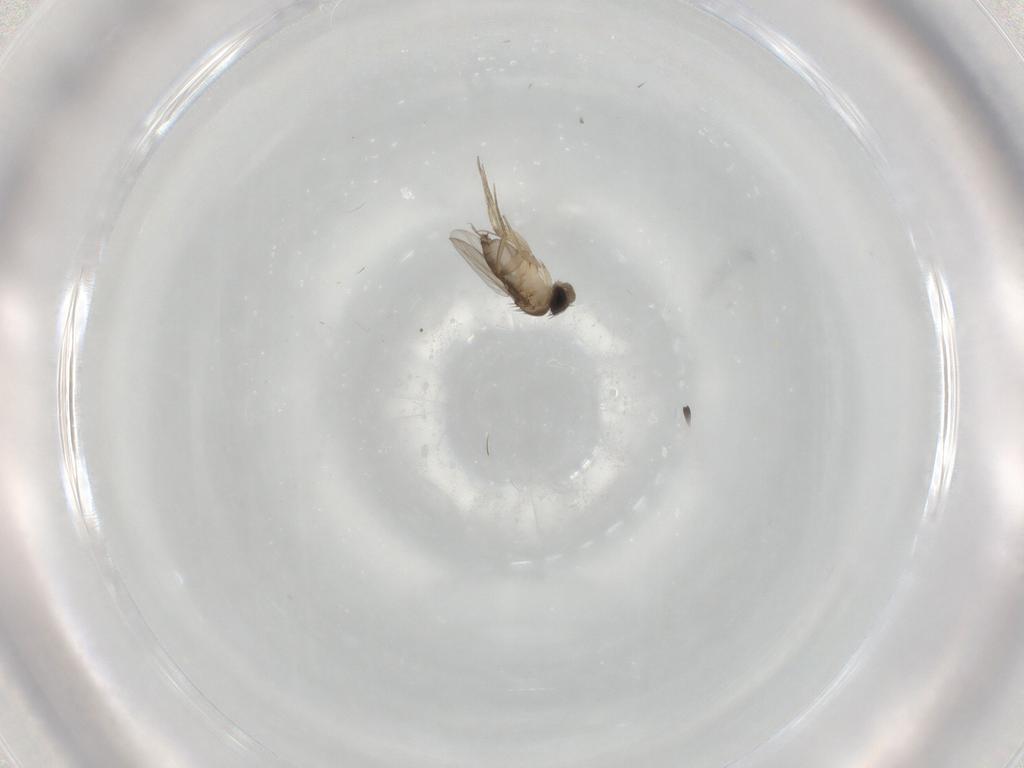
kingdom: Animalia
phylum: Arthropoda
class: Insecta
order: Diptera
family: Phoridae
